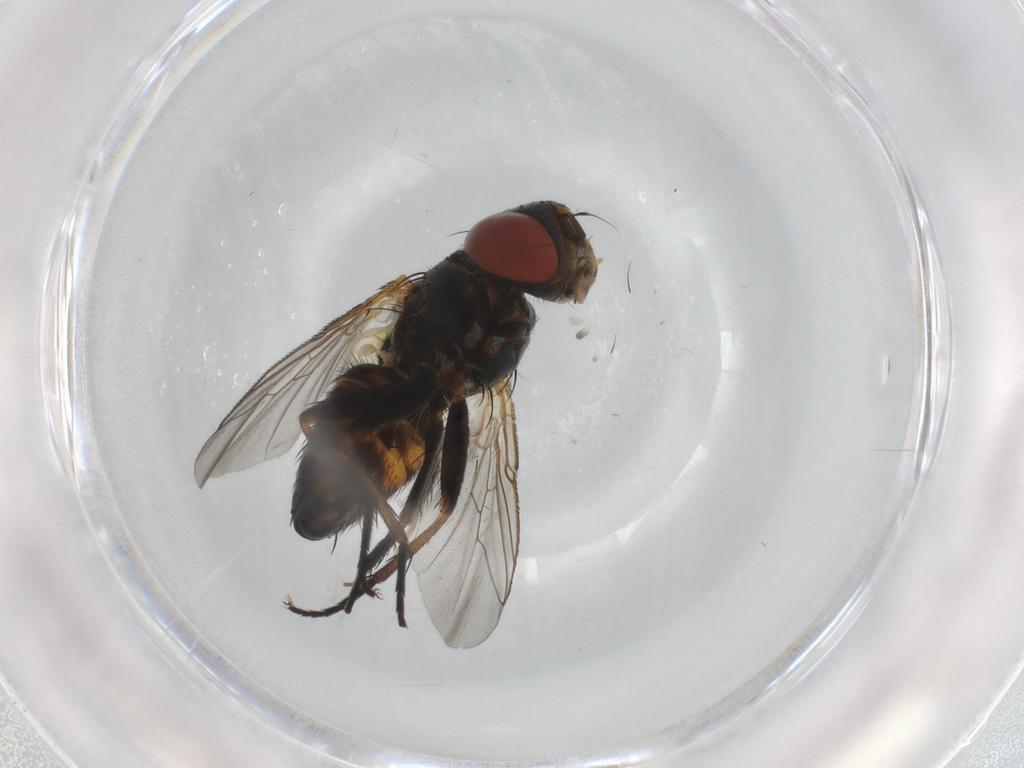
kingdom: Animalia
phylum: Arthropoda
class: Insecta
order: Diptera
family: Sarcophagidae
